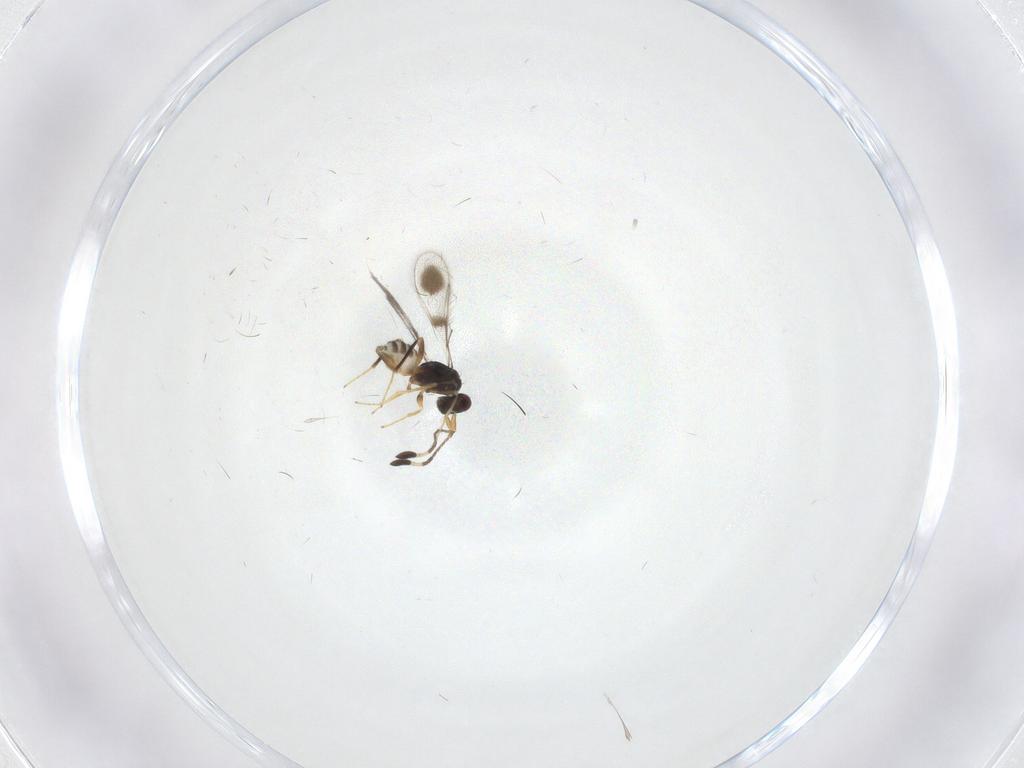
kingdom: Animalia
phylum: Arthropoda
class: Insecta
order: Hymenoptera
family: Mymaridae
